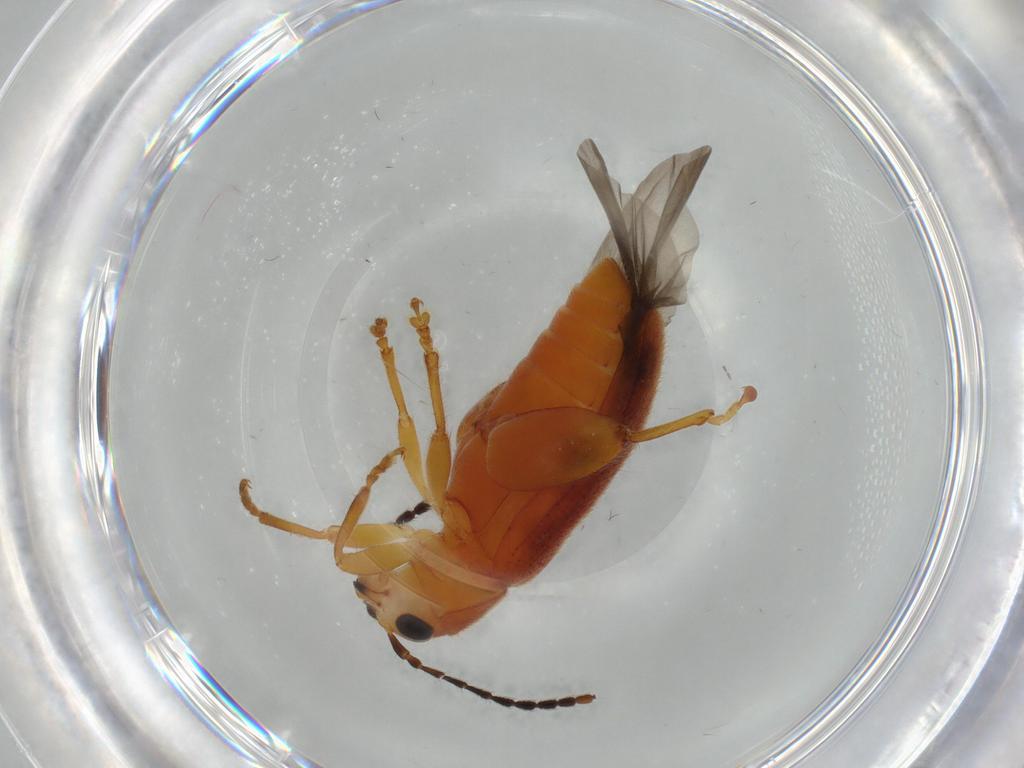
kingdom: Animalia
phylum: Arthropoda
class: Insecta
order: Coleoptera
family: Chrysomelidae
